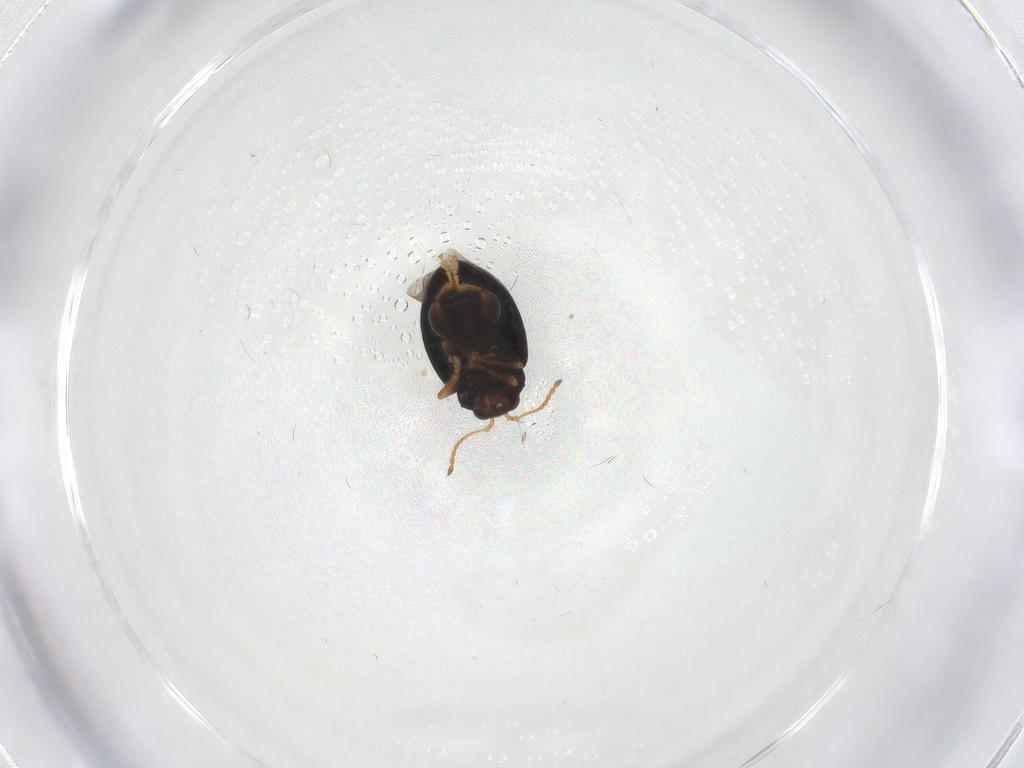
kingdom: Animalia
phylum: Arthropoda
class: Insecta
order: Coleoptera
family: Chrysomelidae
